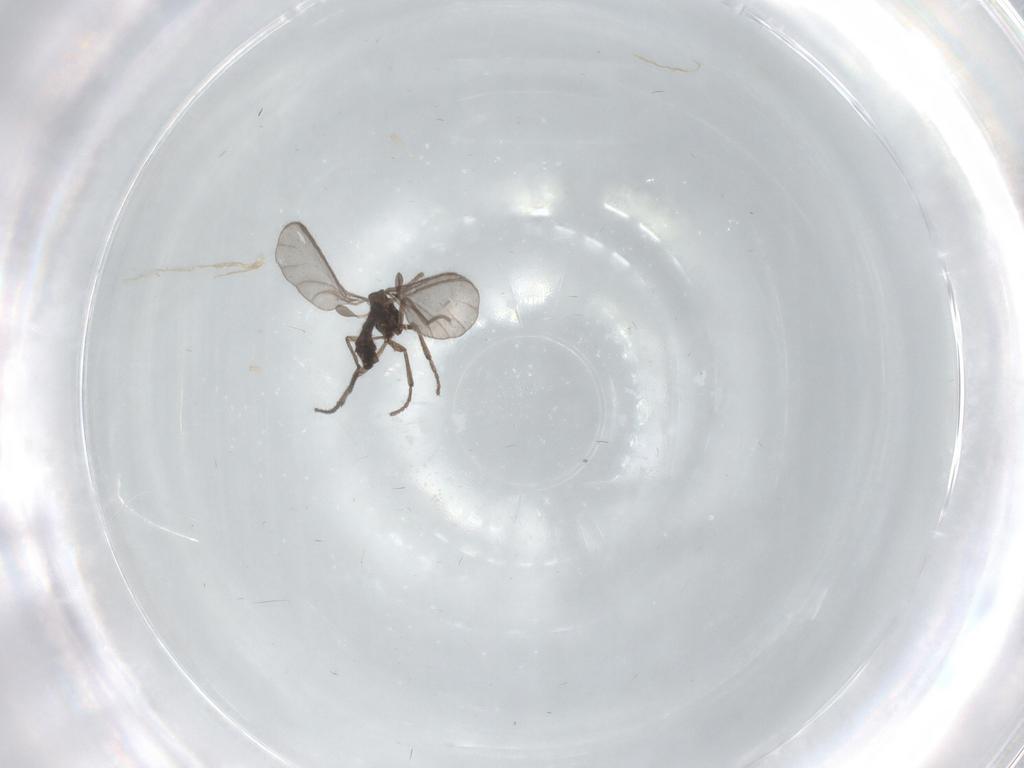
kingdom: Animalia
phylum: Arthropoda
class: Insecta
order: Diptera
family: Sciaridae
